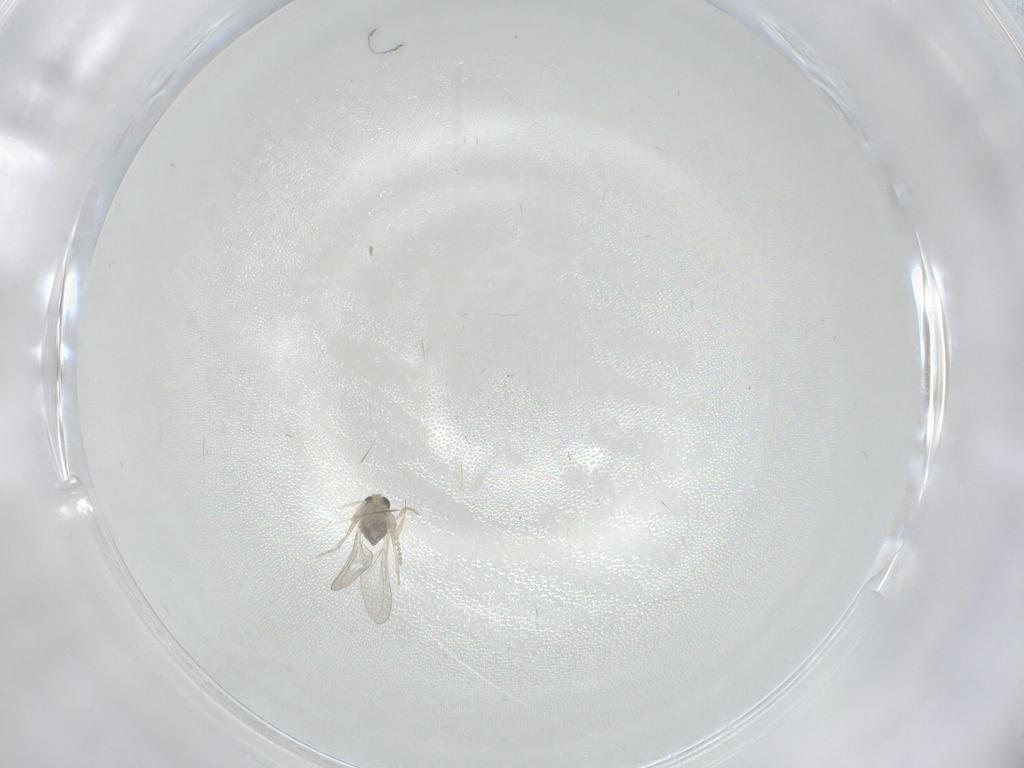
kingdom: Animalia
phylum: Arthropoda
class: Insecta
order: Diptera
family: Cecidomyiidae
